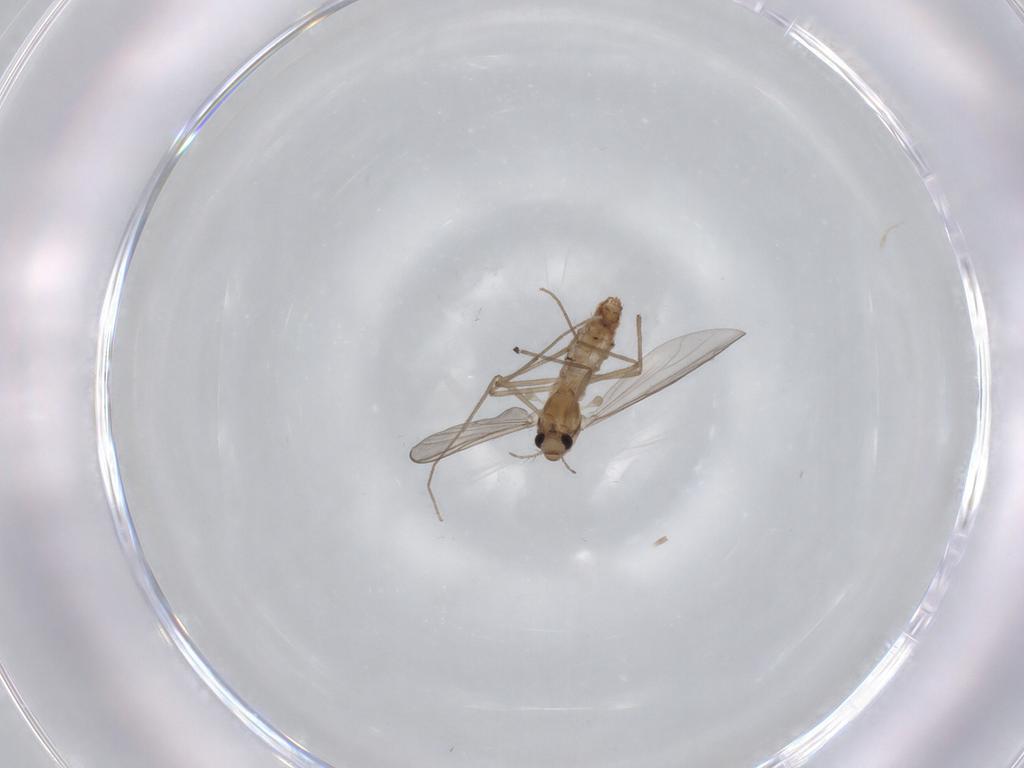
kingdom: Animalia
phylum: Arthropoda
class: Insecta
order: Diptera
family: Chironomidae
